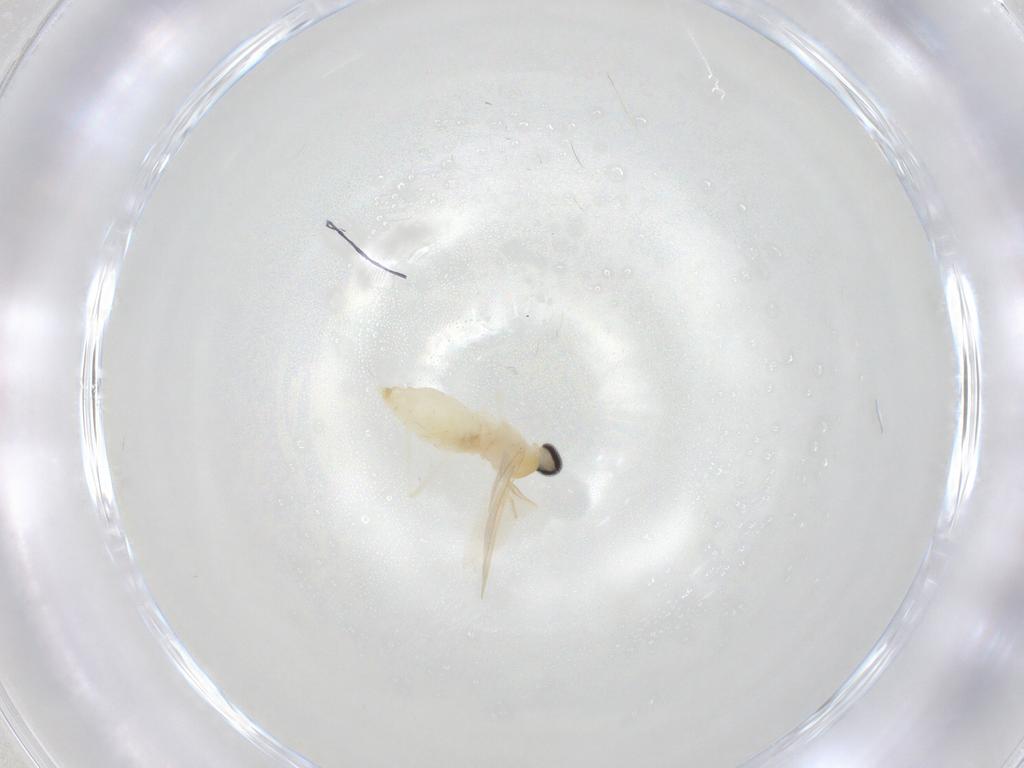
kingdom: Animalia
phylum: Arthropoda
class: Insecta
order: Diptera
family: Cecidomyiidae
